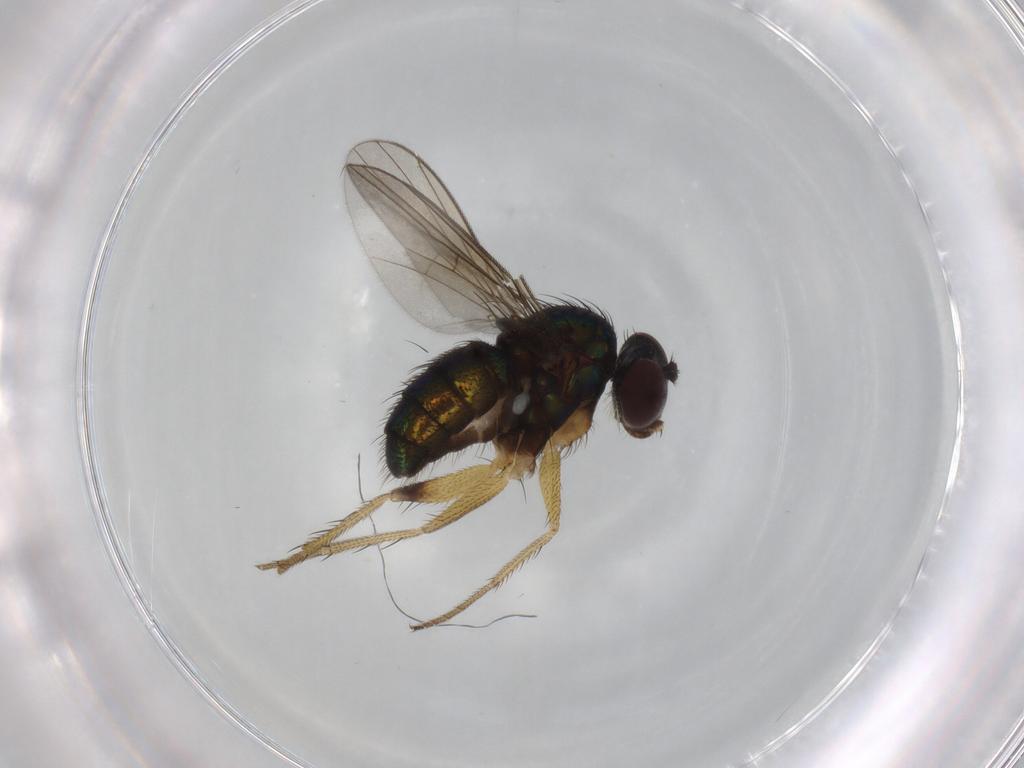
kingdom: Animalia
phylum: Arthropoda
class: Insecta
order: Diptera
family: Dolichopodidae
